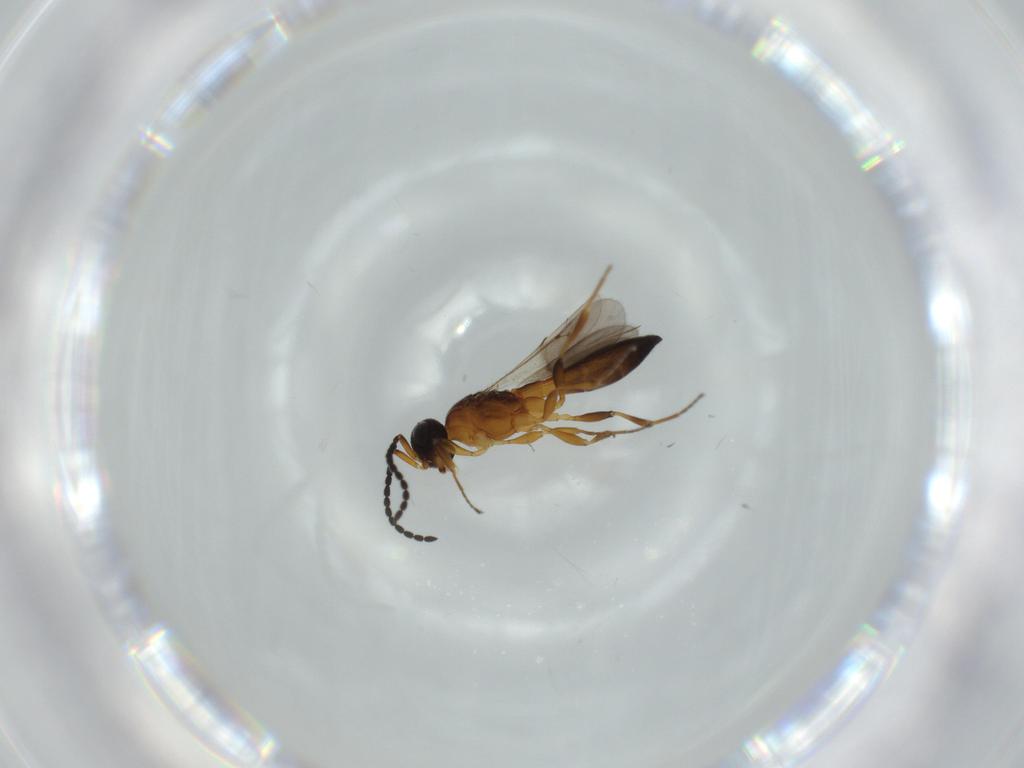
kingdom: Animalia
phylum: Arthropoda
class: Insecta
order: Hymenoptera
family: Scelionidae
